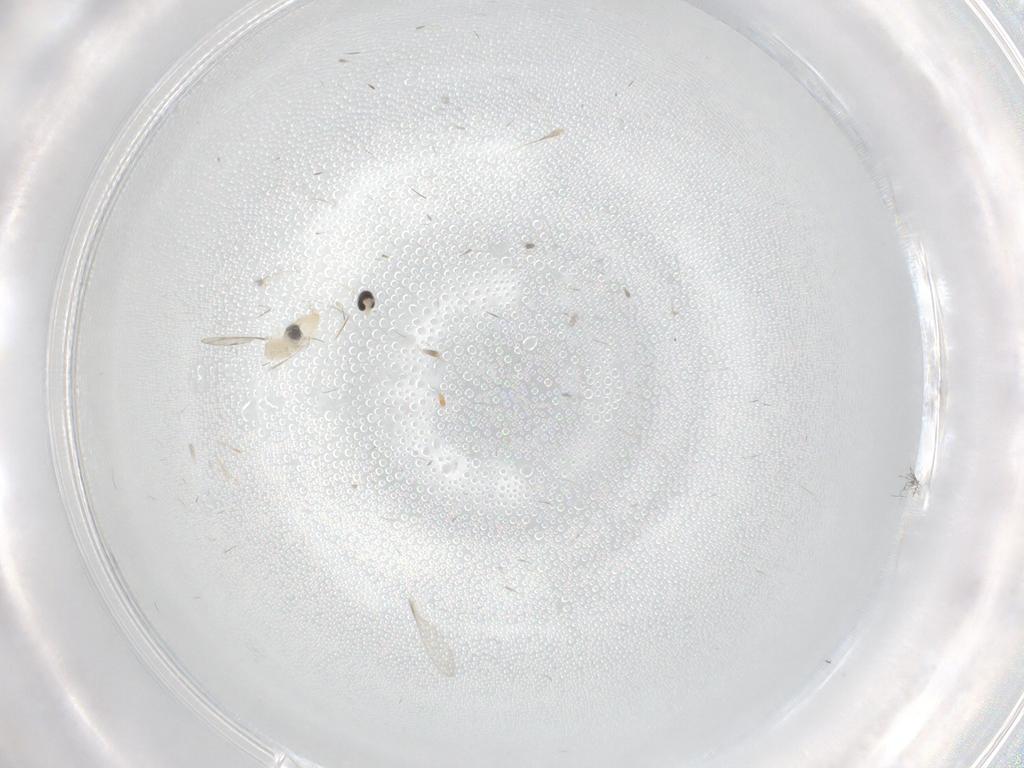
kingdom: Animalia
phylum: Arthropoda
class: Insecta
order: Diptera
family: Cecidomyiidae
